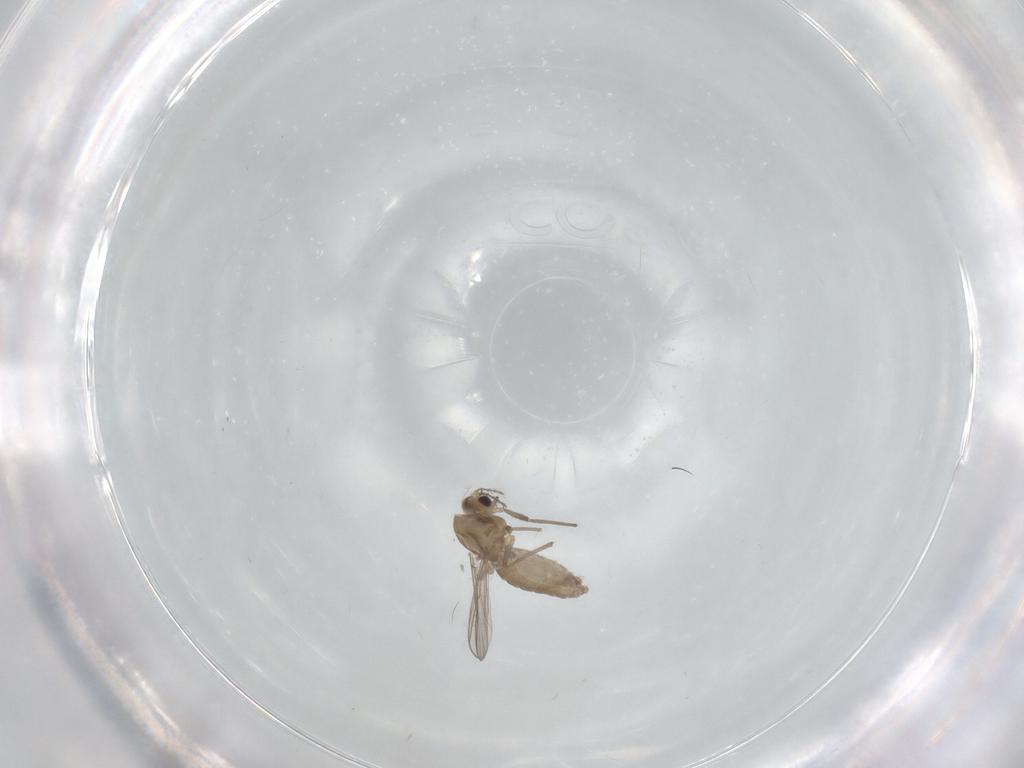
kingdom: Animalia
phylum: Arthropoda
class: Insecta
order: Diptera
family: Chironomidae
